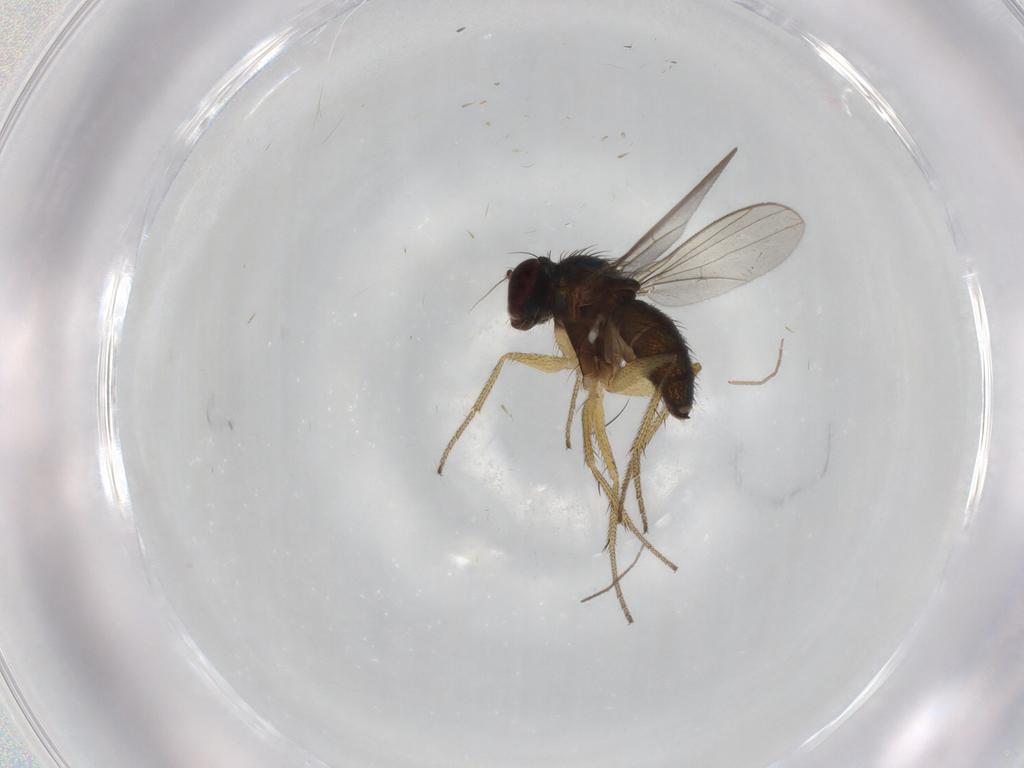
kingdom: Animalia
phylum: Arthropoda
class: Insecta
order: Diptera
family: Dolichopodidae
